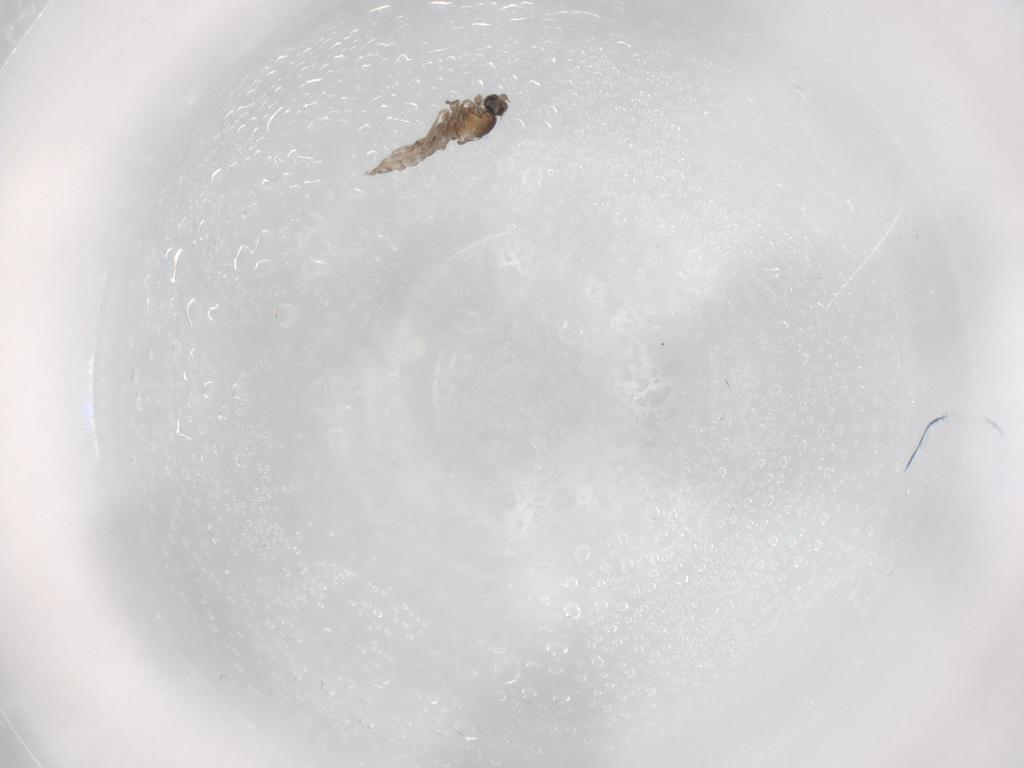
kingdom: Animalia
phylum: Arthropoda
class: Insecta
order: Diptera
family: Cecidomyiidae
